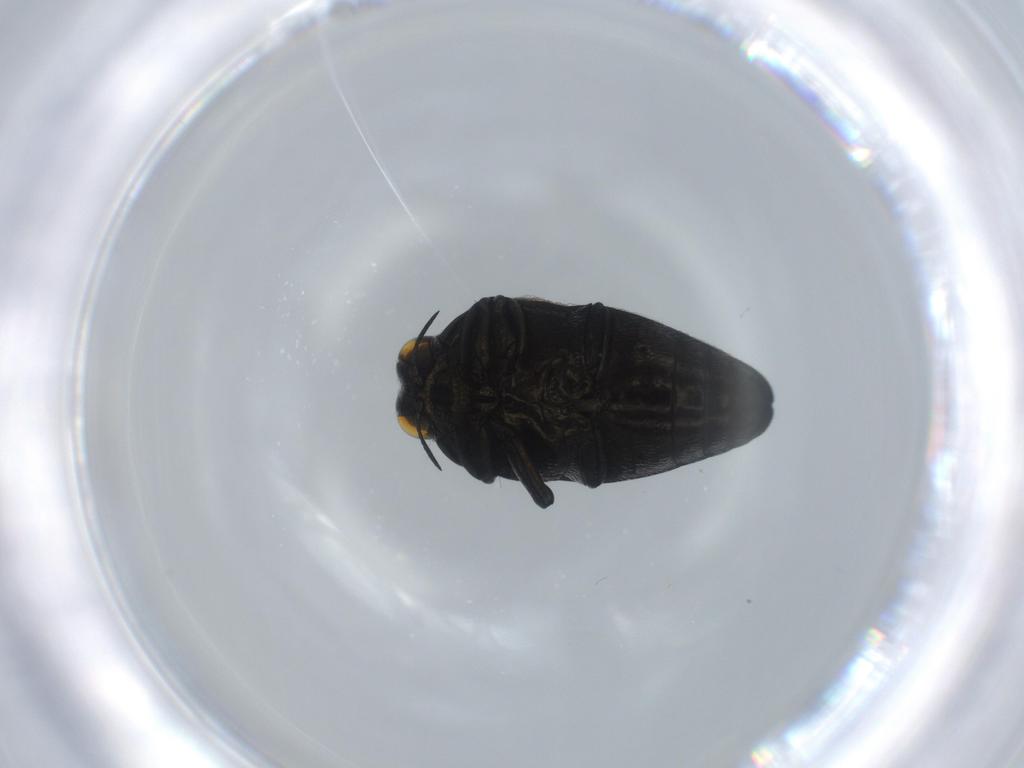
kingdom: Animalia
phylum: Arthropoda
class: Insecta
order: Coleoptera
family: Buprestidae
